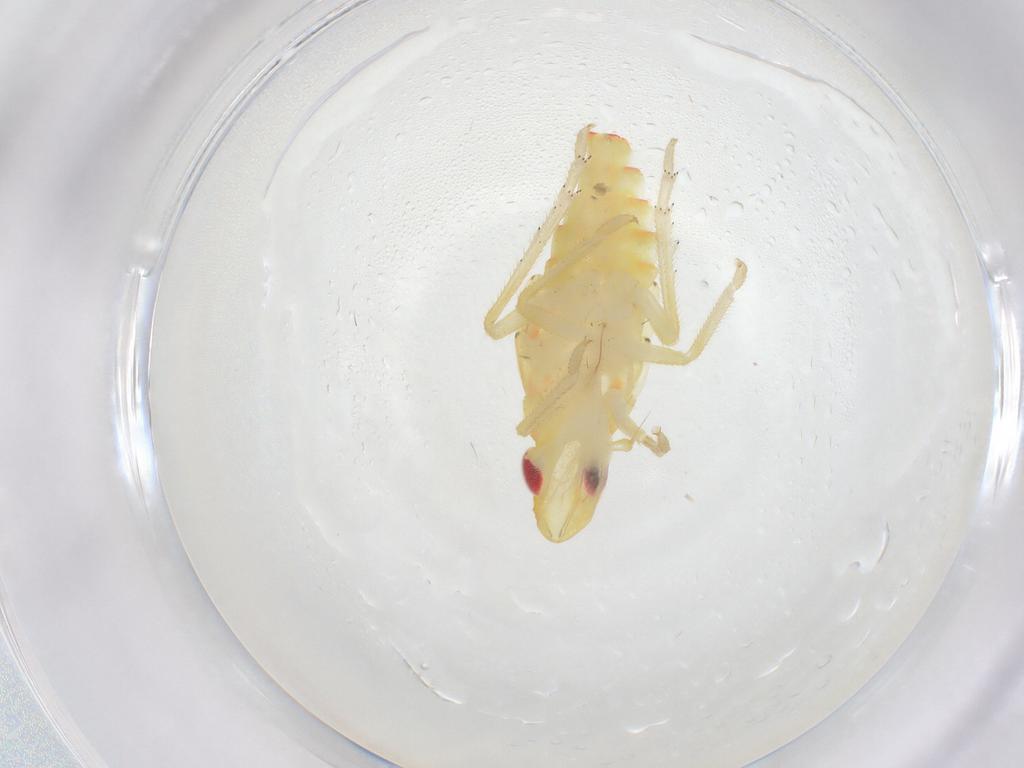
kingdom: Animalia
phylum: Arthropoda
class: Insecta
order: Hemiptera
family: Tropiduchidae
